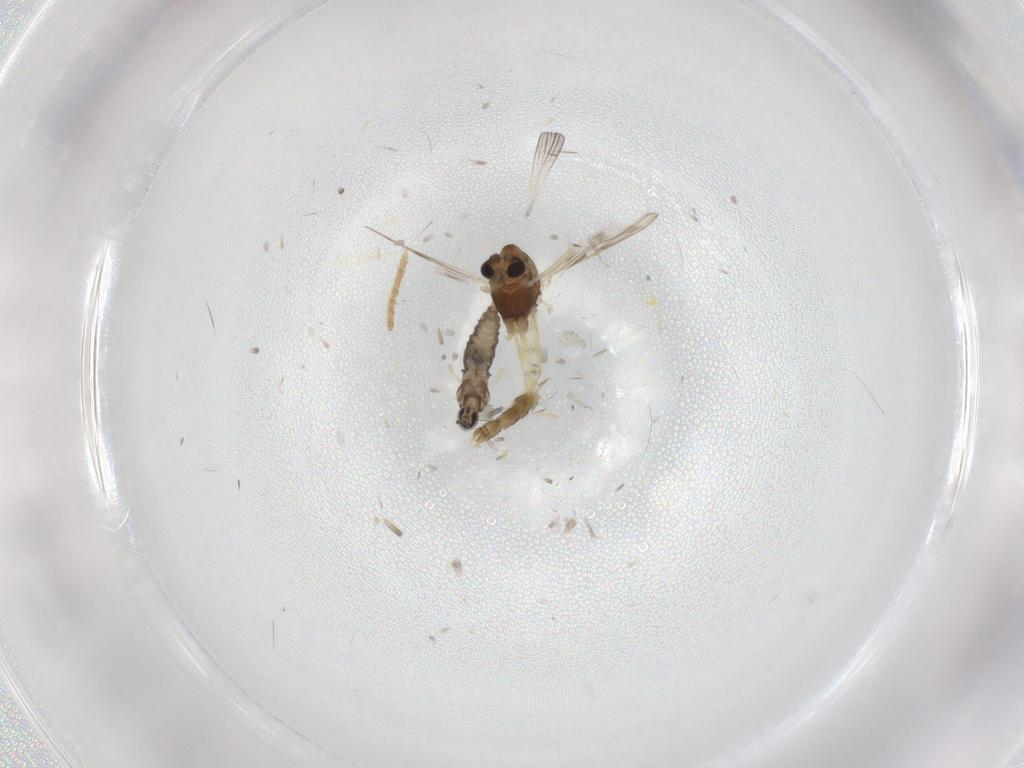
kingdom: Animalia
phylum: Arthropoda
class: Insecta
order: Diptera
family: Cecidomyiidae
